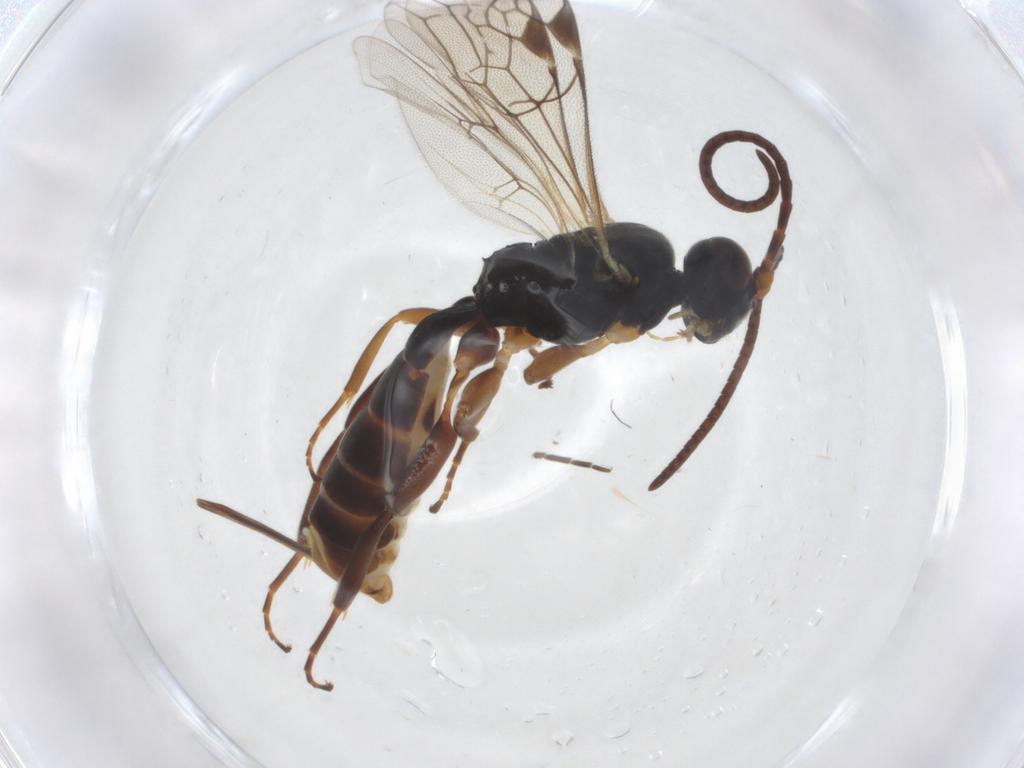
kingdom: Animalia
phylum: Arthropoda
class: Insecta
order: Hymenoptera
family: Ichneumonidae
